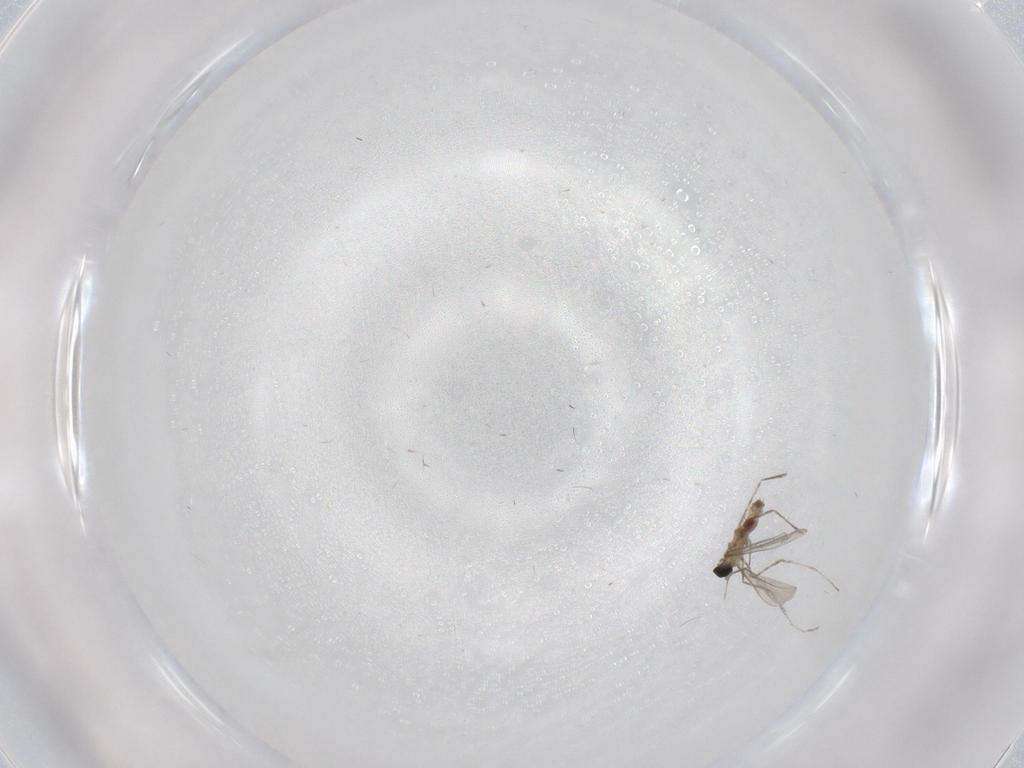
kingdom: Animalia
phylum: Arthropoda
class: Insecta
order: Diptera
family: Cecidomyiidae
